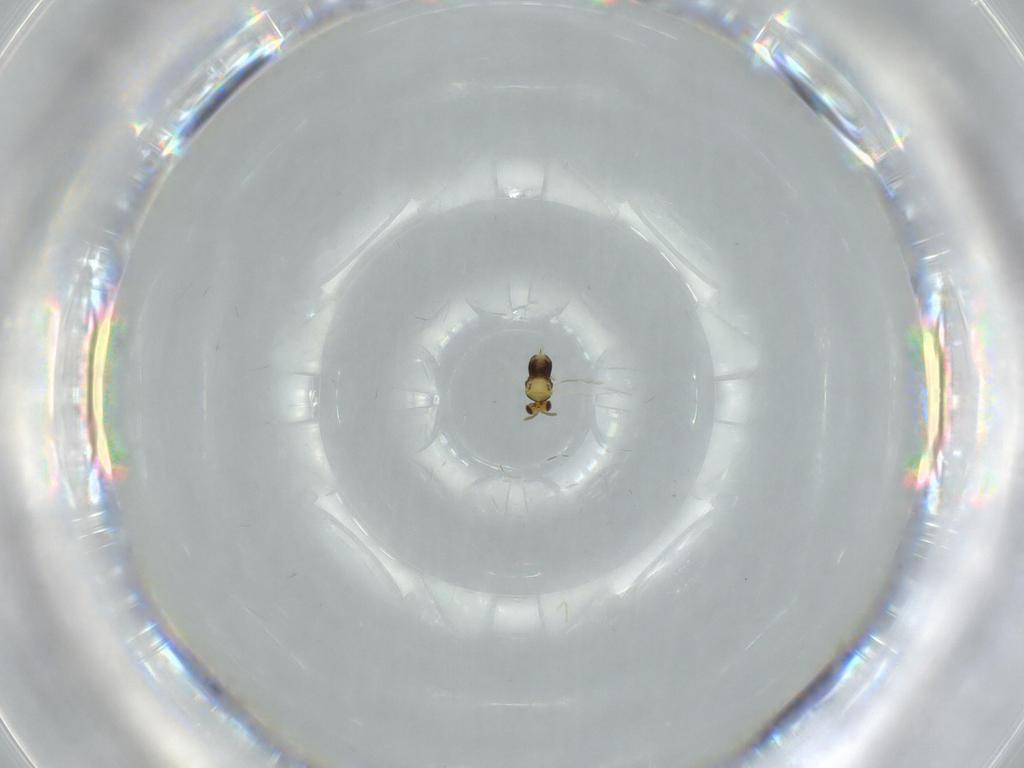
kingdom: Animalia
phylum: Arthropoda
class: Insecta
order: Hymenoptera
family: Aphelinidae
